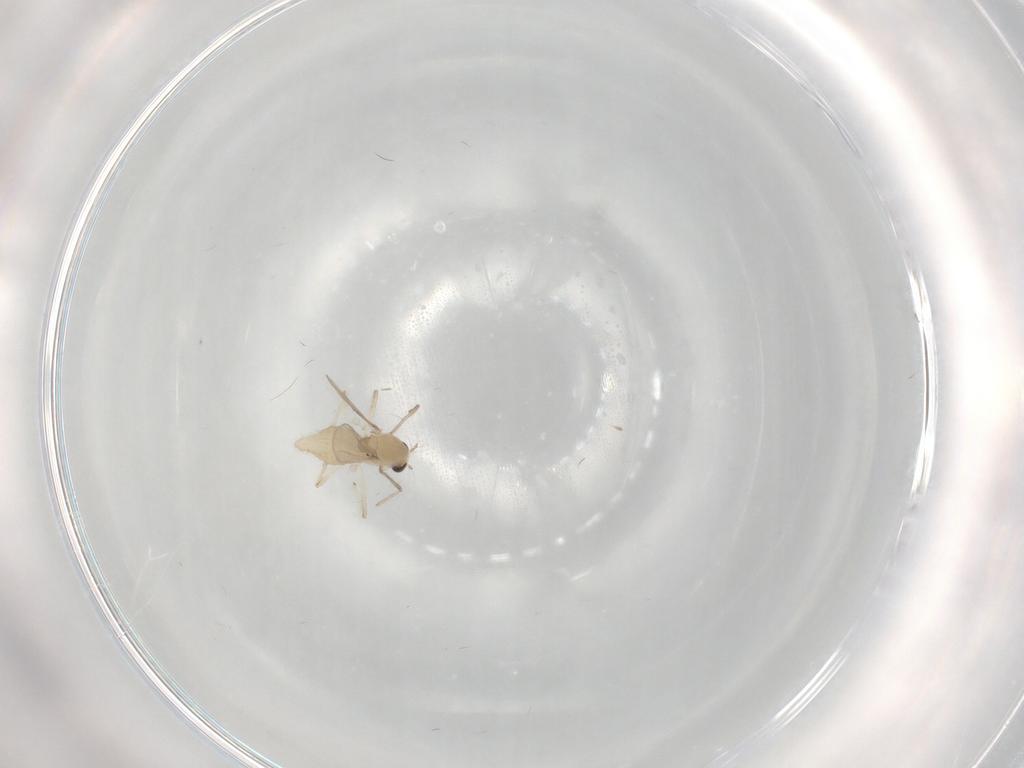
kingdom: Animalia
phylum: Arthropoda
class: Insecta
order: Diptera
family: Chironomidae
